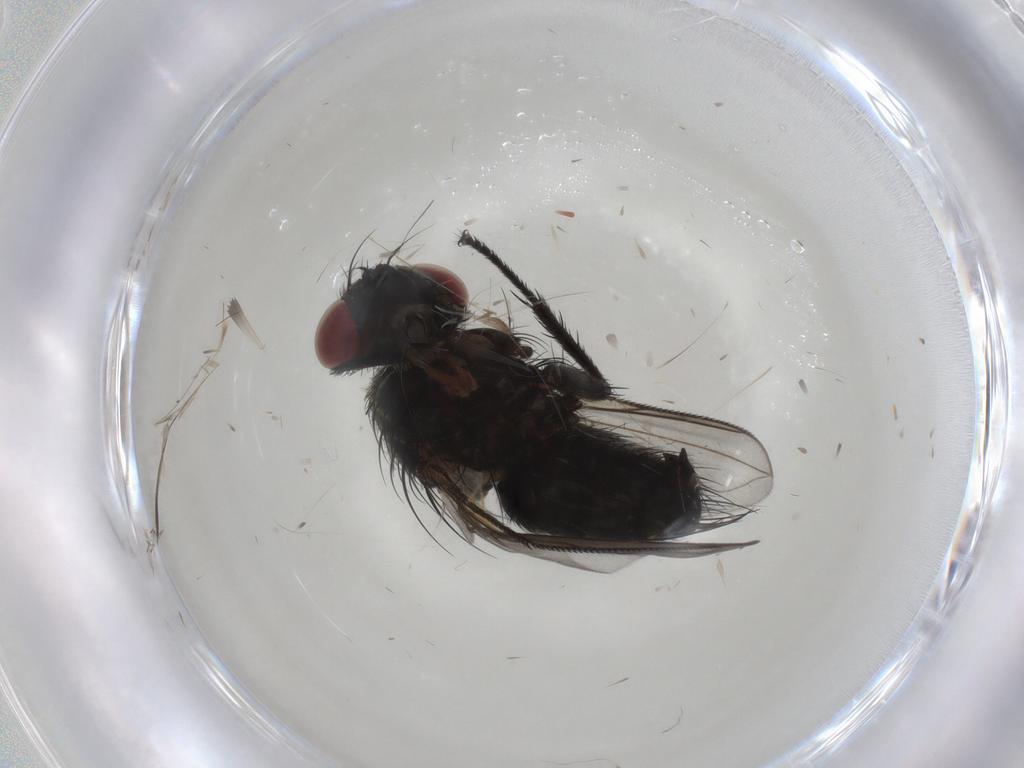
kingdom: Animalia
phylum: Arthropoda
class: Insecta
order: Diptera
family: Tachinidae
